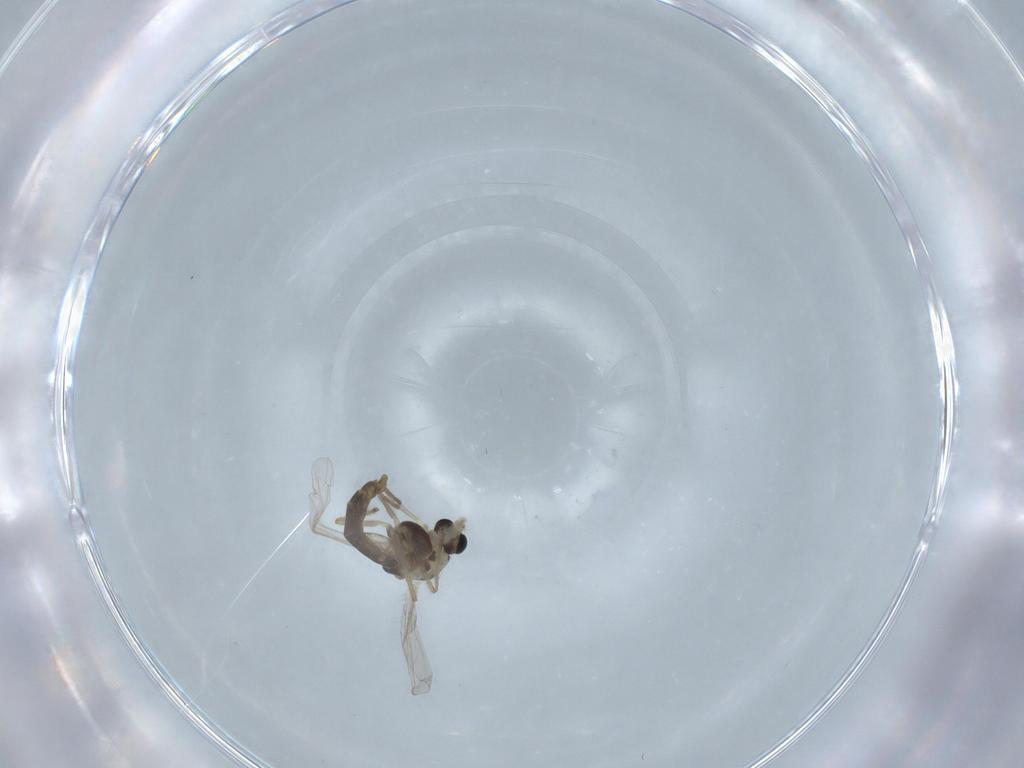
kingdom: Animalia
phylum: Arthropoda
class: Insecta
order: Diptera
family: Chironomidae
